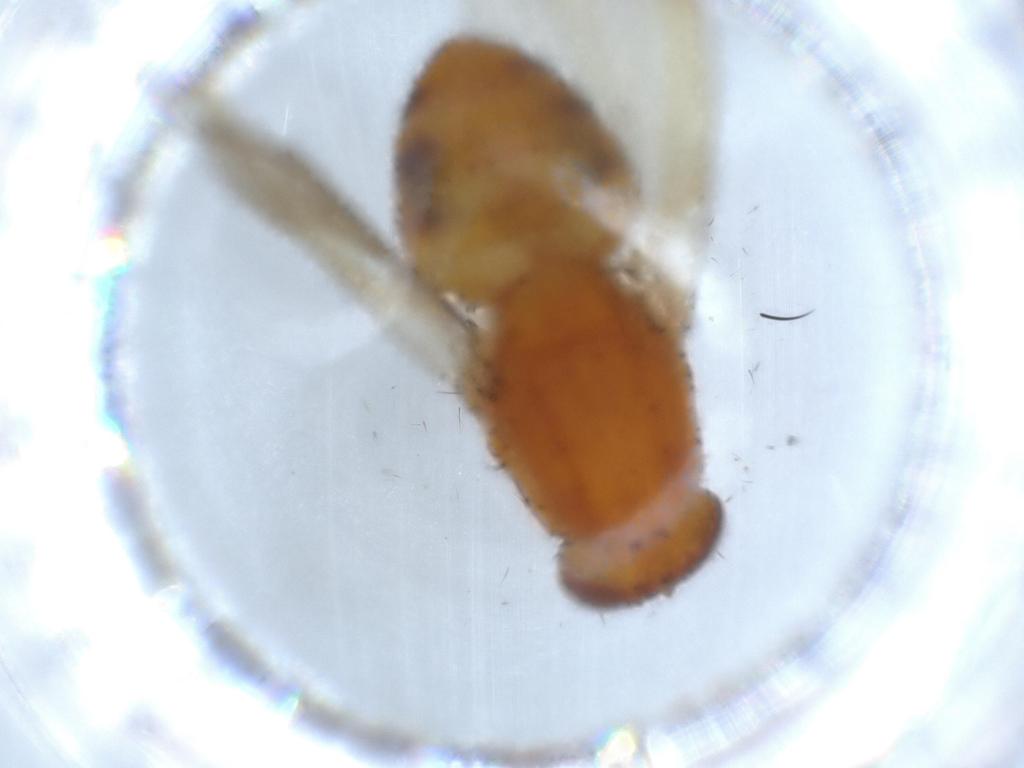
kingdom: Animalia
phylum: Arthropoda
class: Insecta
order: Diptera
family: Lauxaniidae
